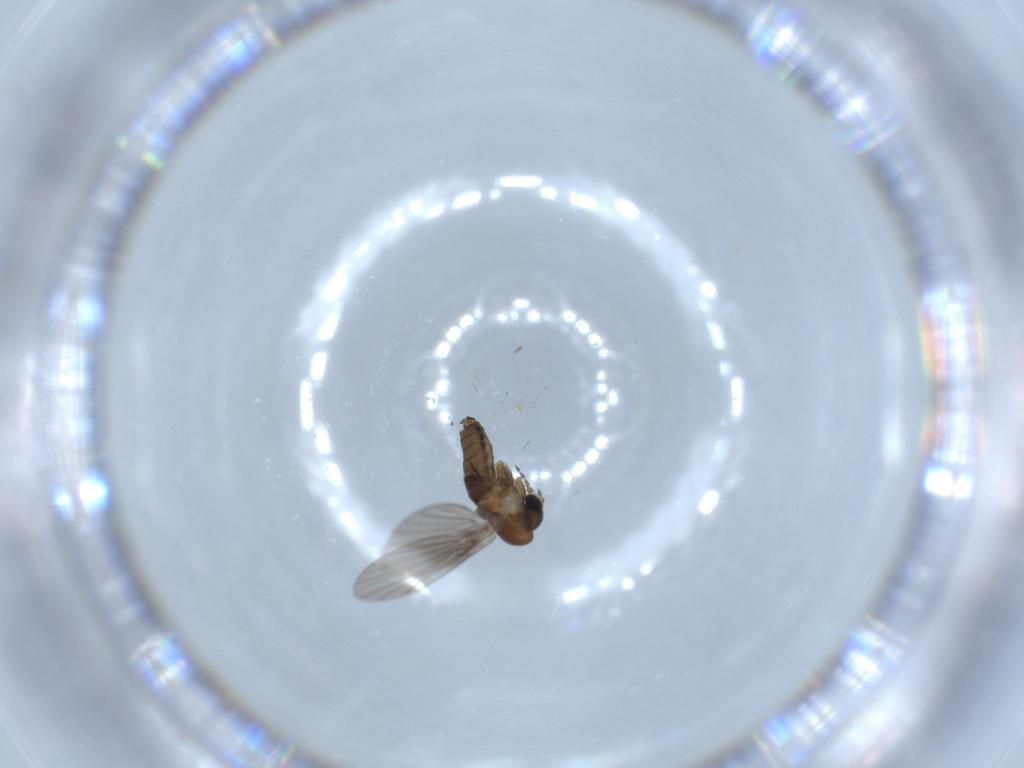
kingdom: Animalia
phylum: Arthropoda
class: Insecta
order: Diptera
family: Psychodidae
